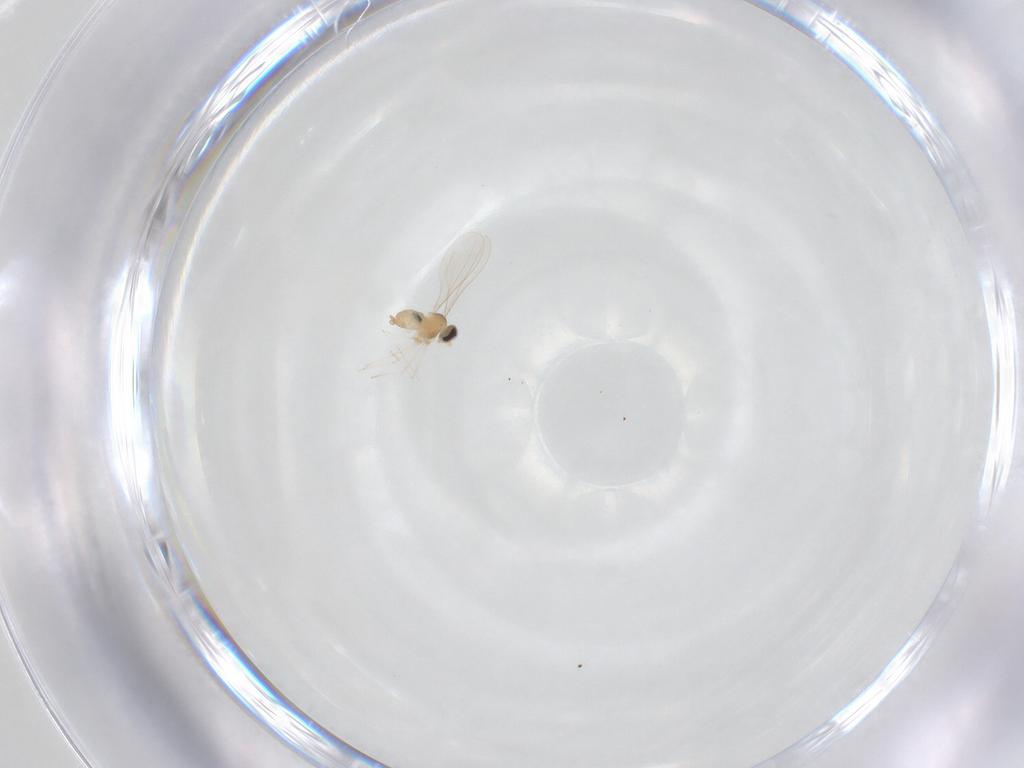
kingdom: Animalia
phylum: Arthropoda
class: Insecta
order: Diptera
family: Cecidomyiidae
